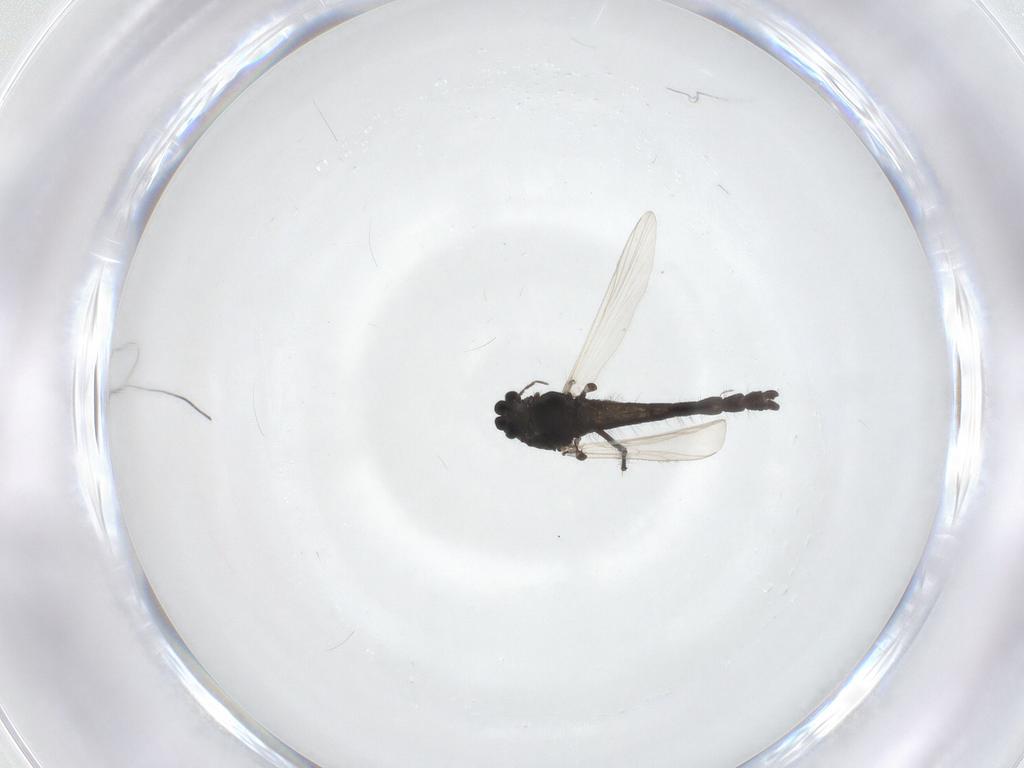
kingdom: Animalia
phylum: Arthropoda
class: Insecta
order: Diptera
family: Chironomidae
